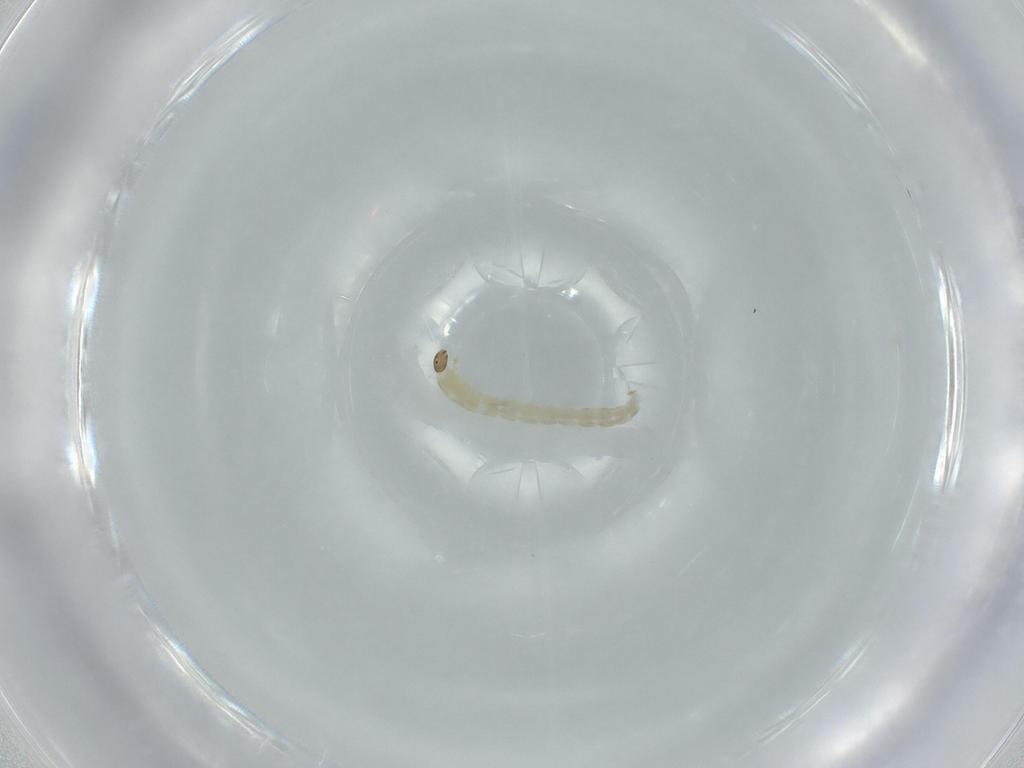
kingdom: Animalia
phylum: Arthropoda
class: Insecta
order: Diptera
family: Chironomidae
